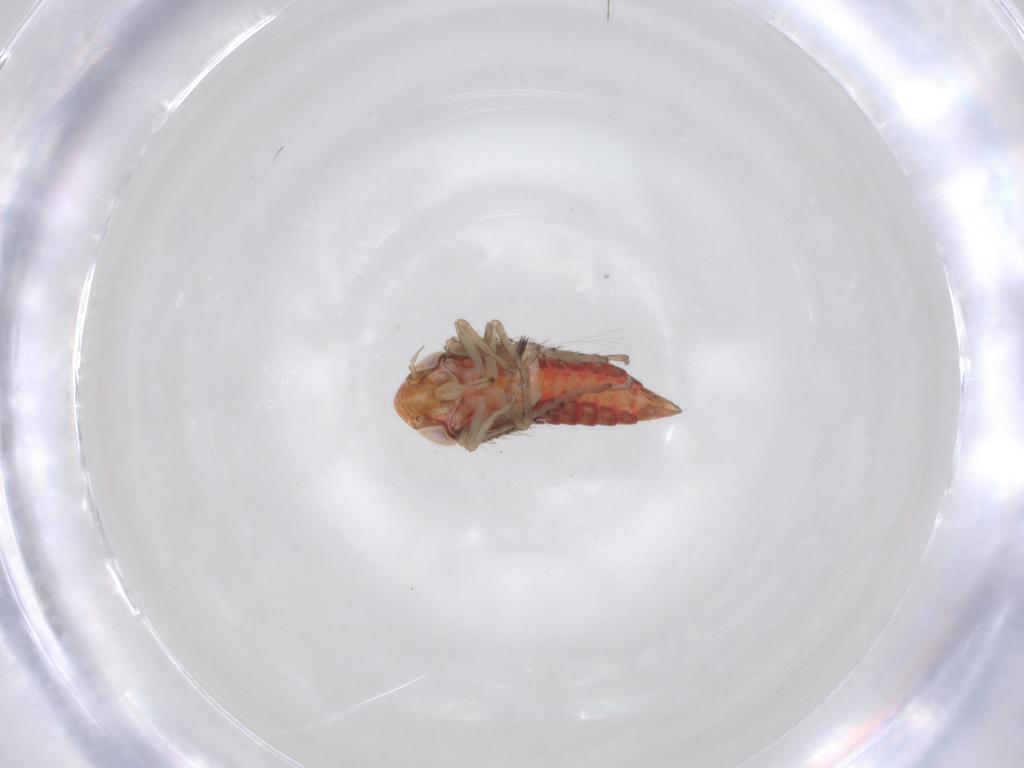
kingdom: Animalia
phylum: Arthropoda
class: Insecta
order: Hemiptera
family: Cicadellidae
